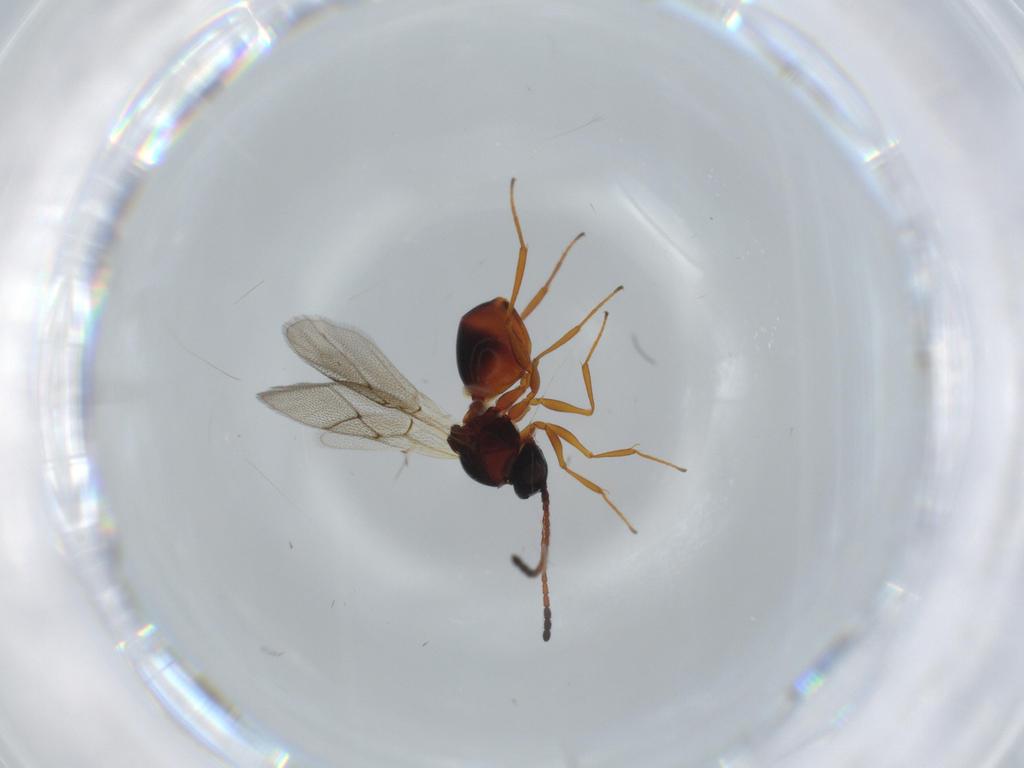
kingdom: Animalia
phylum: Arthropoda
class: Insecta
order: Hymenoptera
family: Figitidae
